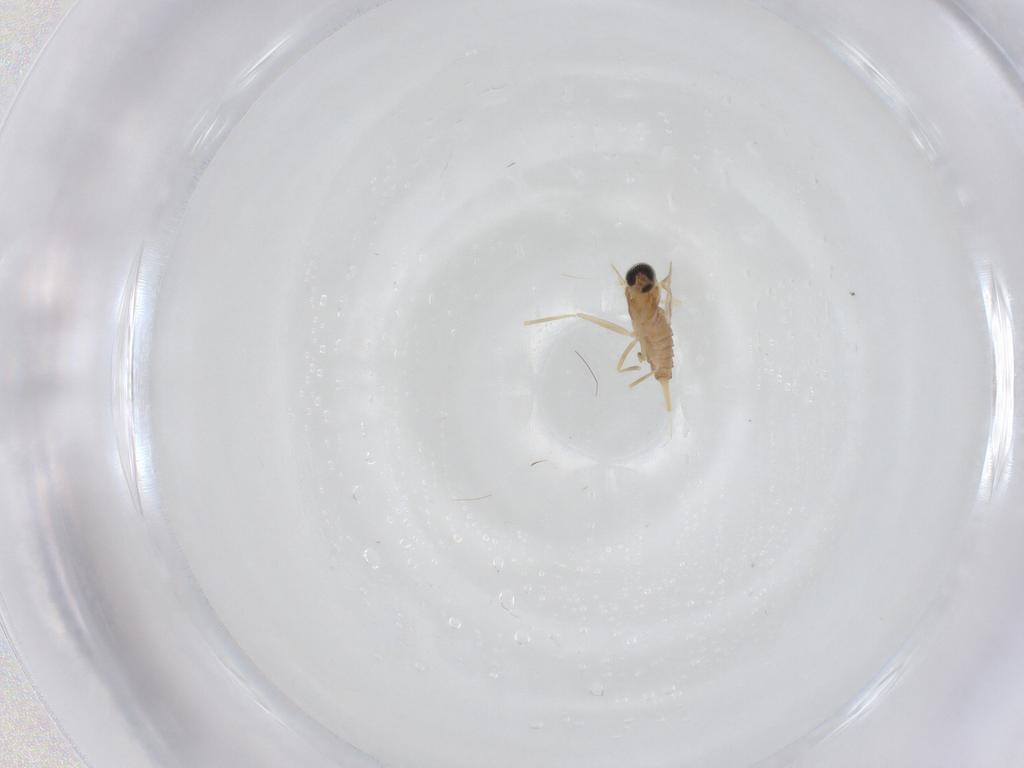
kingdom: Animalia
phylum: Arthropoda
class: Insecta
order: Diptera
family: Cecidomyiidae
